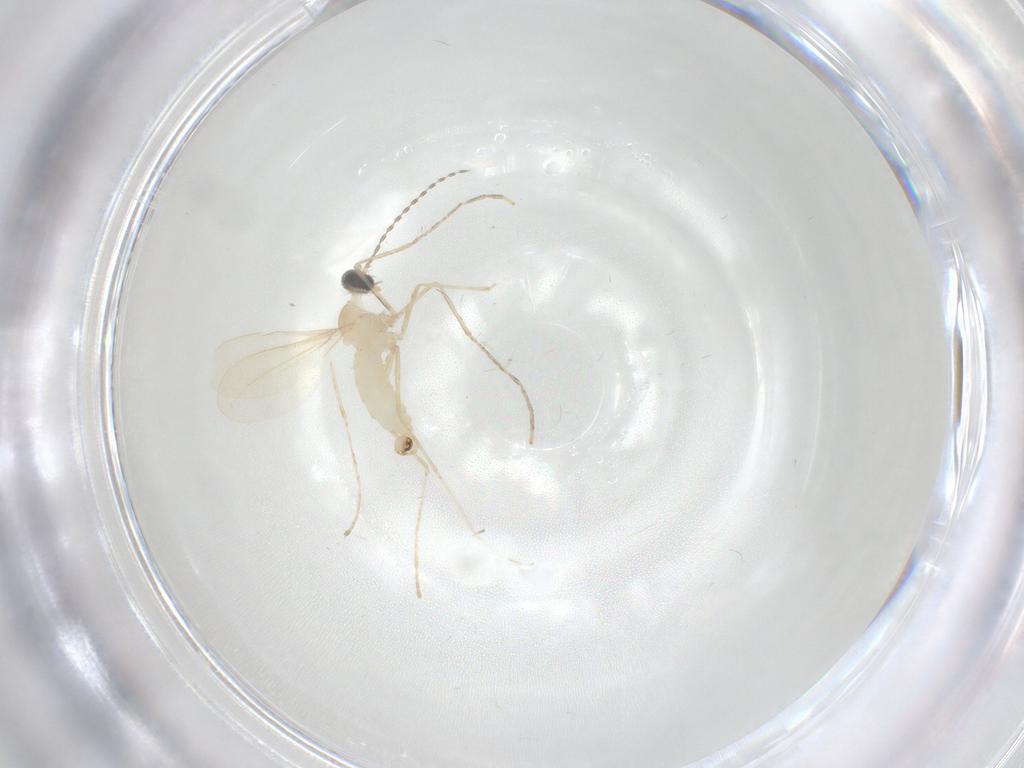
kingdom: Animalia
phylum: Arthropoda
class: Insecta
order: Diptera
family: Cecidomyiidae
